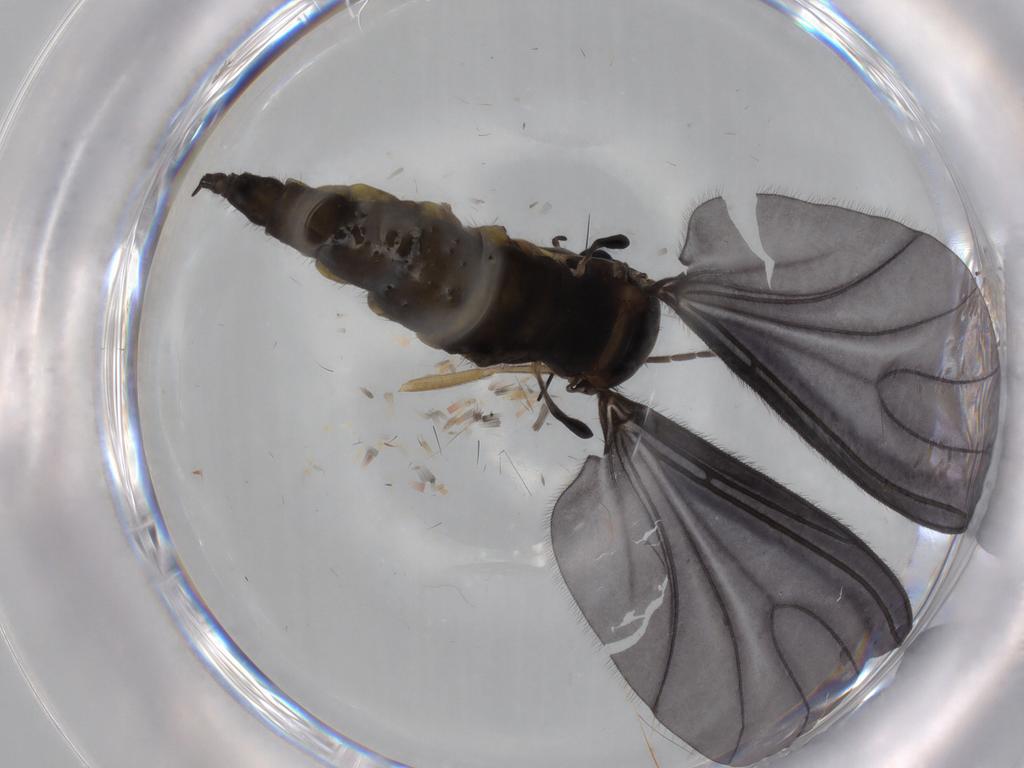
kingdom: Animalia
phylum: Arthropoda
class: Insecta
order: Diptera
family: Sciaridae
